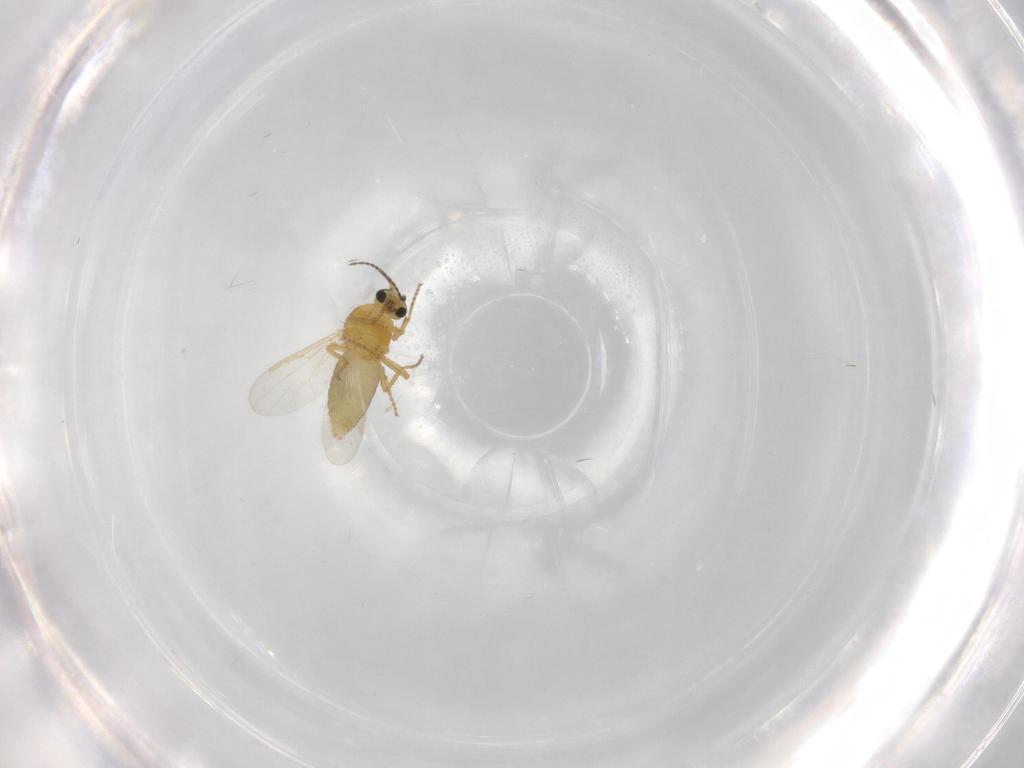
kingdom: Animalia
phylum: Arthropoda
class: Insecta
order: Diptera
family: Ceratopogonidae
